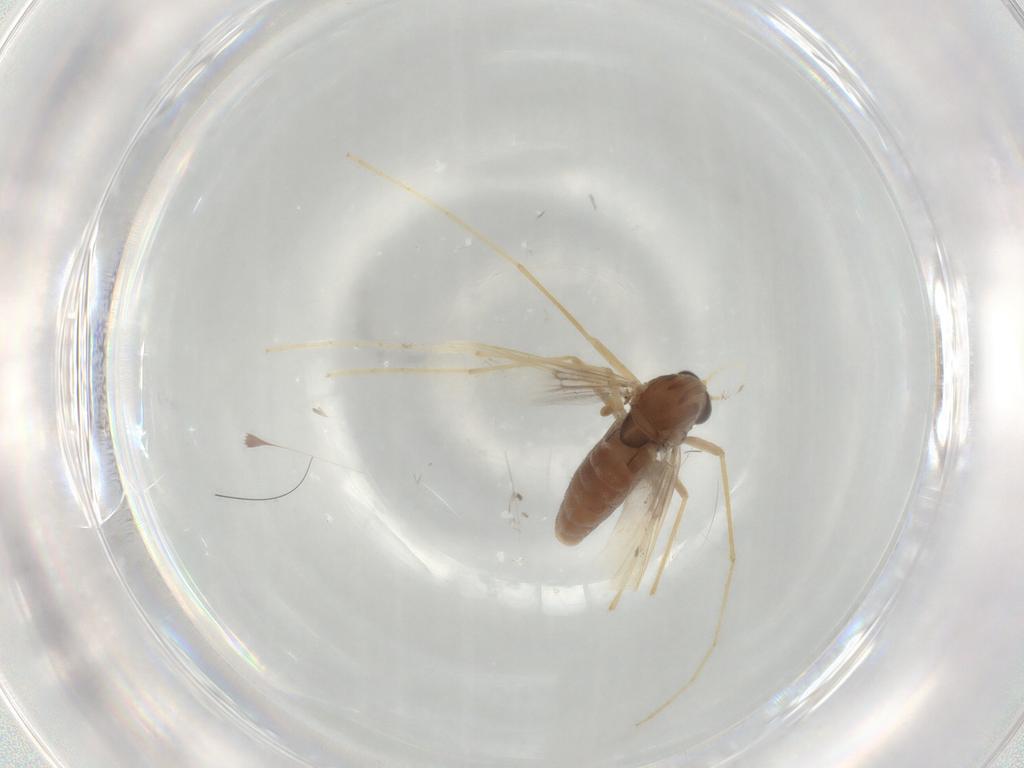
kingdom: Animalia
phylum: Arthropoda
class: Insecta
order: Diptera
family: Chironomidae
